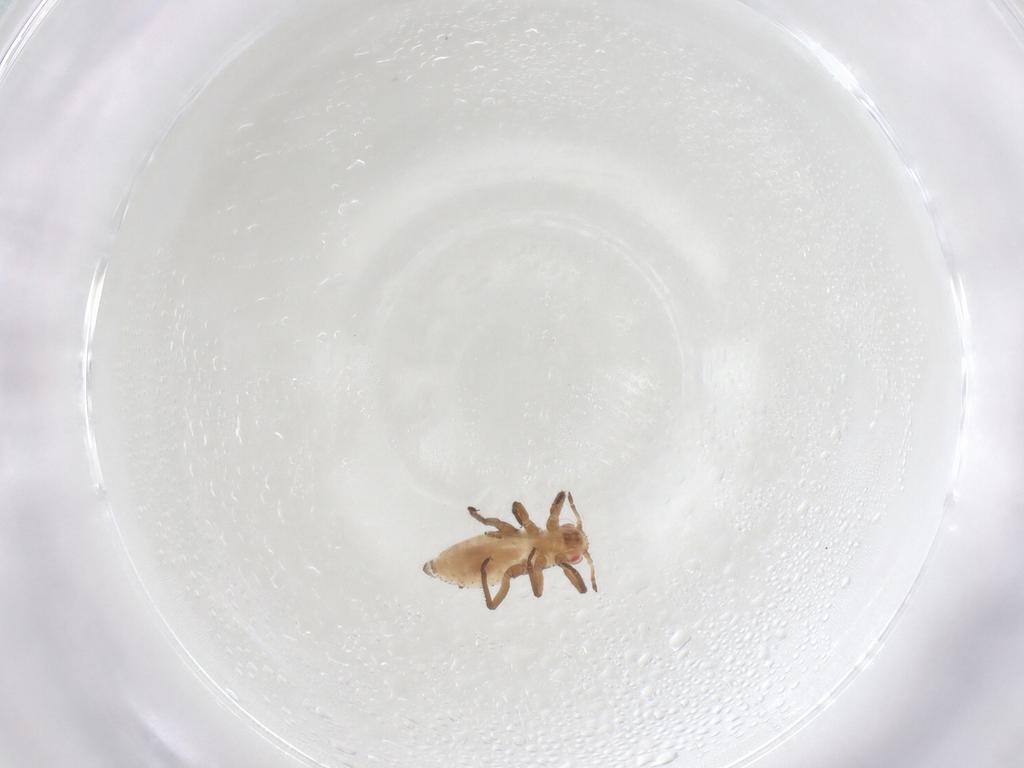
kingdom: Animalia
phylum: Arthropoda
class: Insecta
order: Hemiptera
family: Lachnidae
